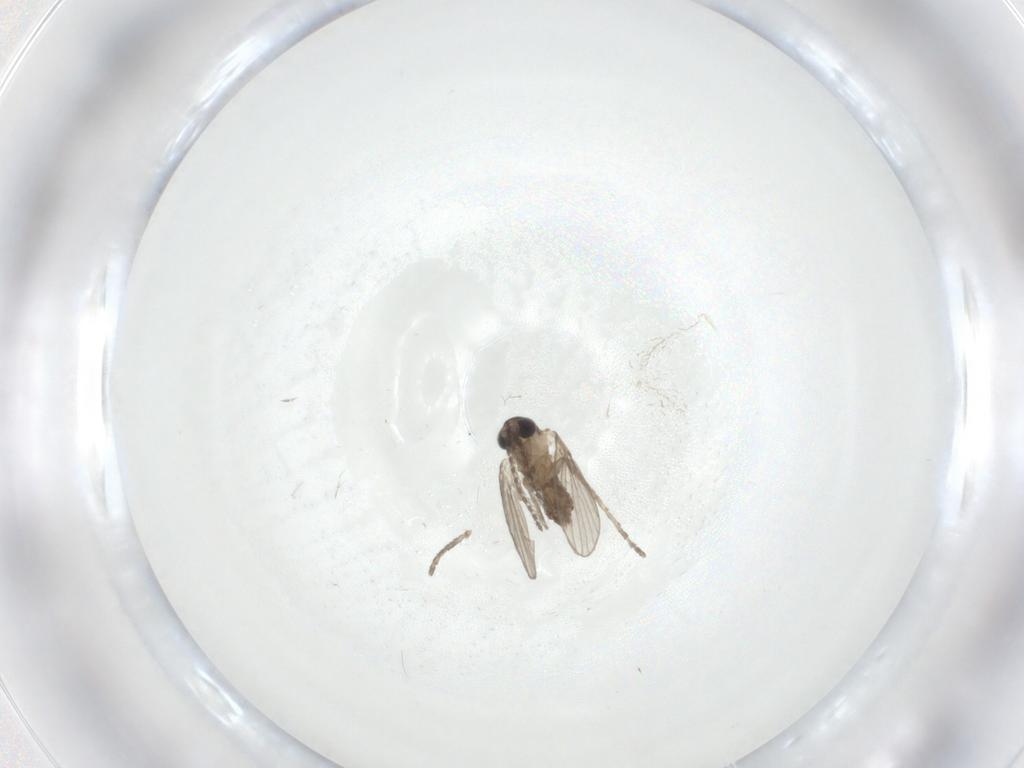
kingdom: Animalia
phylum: Arthropoda
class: Insecta
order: Diptera
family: Psychodidae
